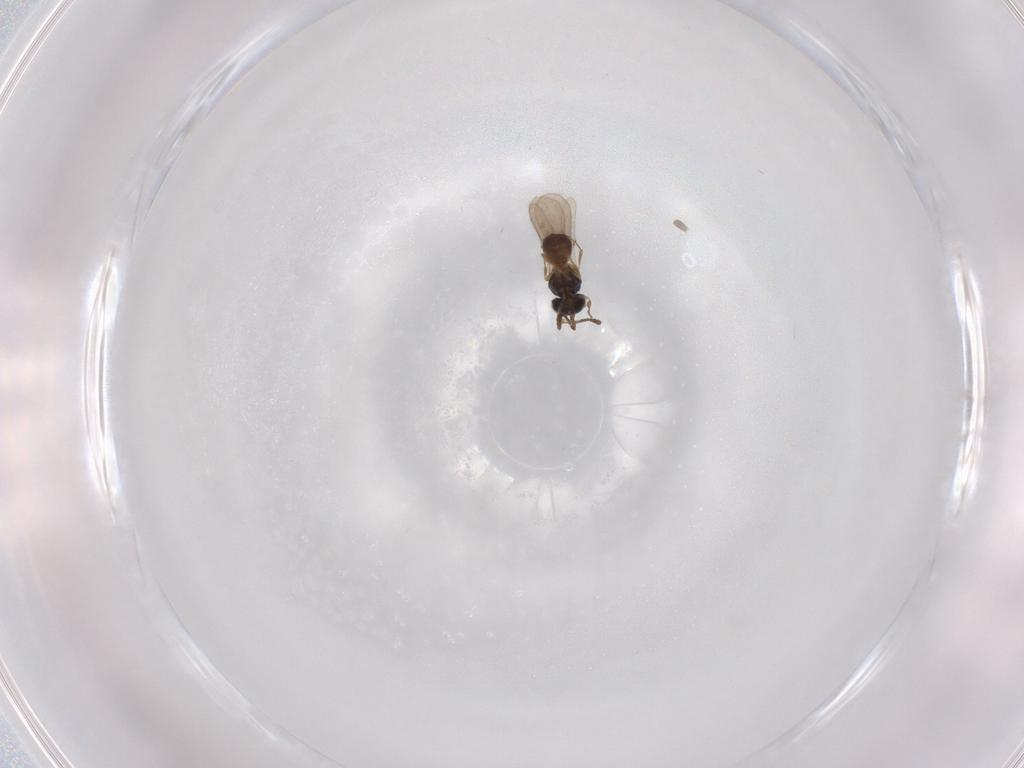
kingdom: Animalia
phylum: Arthropoda
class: Insecta
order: Hymenoptera
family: Scelionidae
